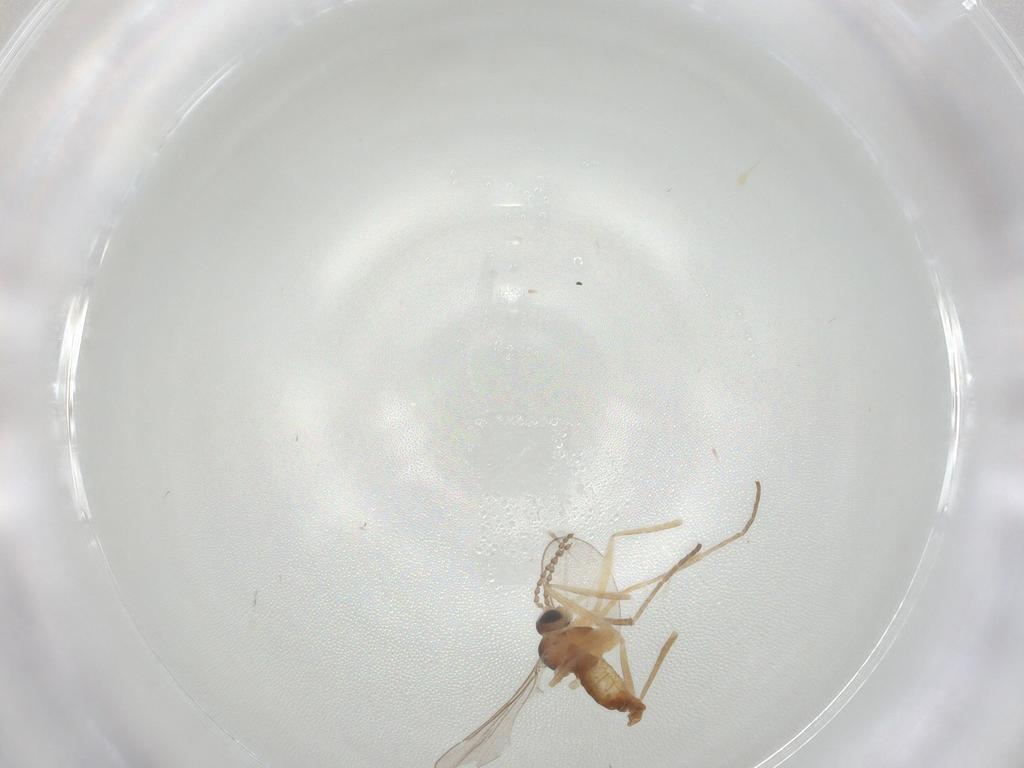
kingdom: Animalia
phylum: Arthropoda
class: Insecta
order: Diptera
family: Cecidomyiidae
